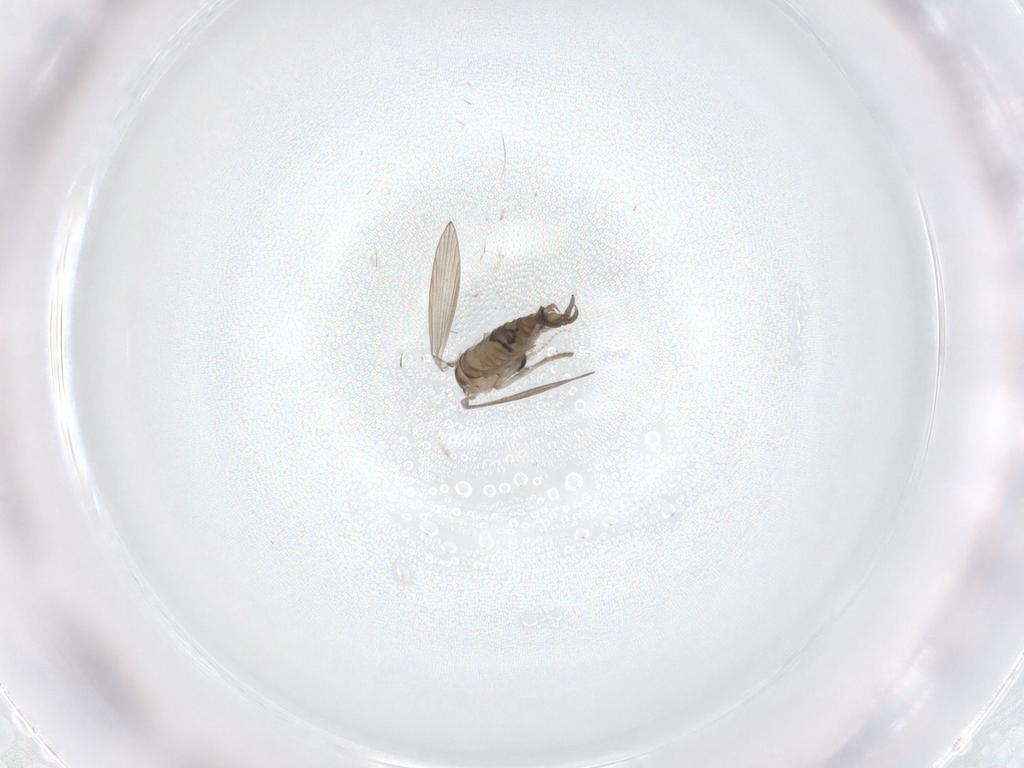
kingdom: Animalia
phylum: Arthropoda
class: Insecta
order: Diptera
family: Psychodidae
